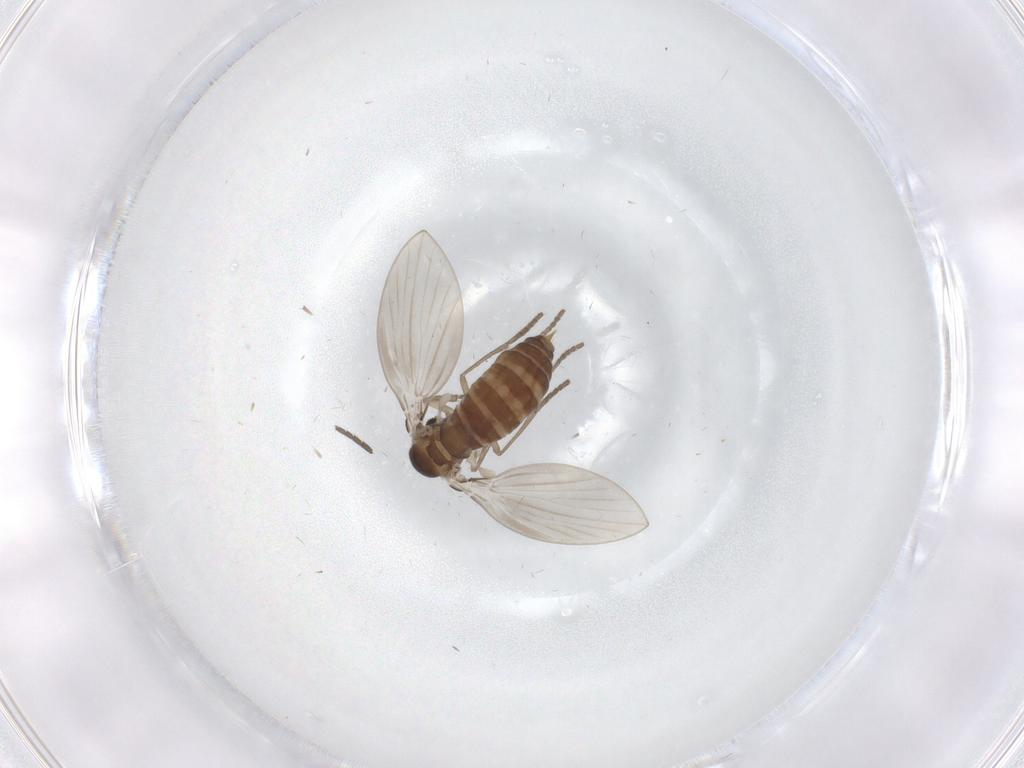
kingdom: Animalia
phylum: Arthropoda
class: Insecta
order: Diptera
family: Psychodidae
